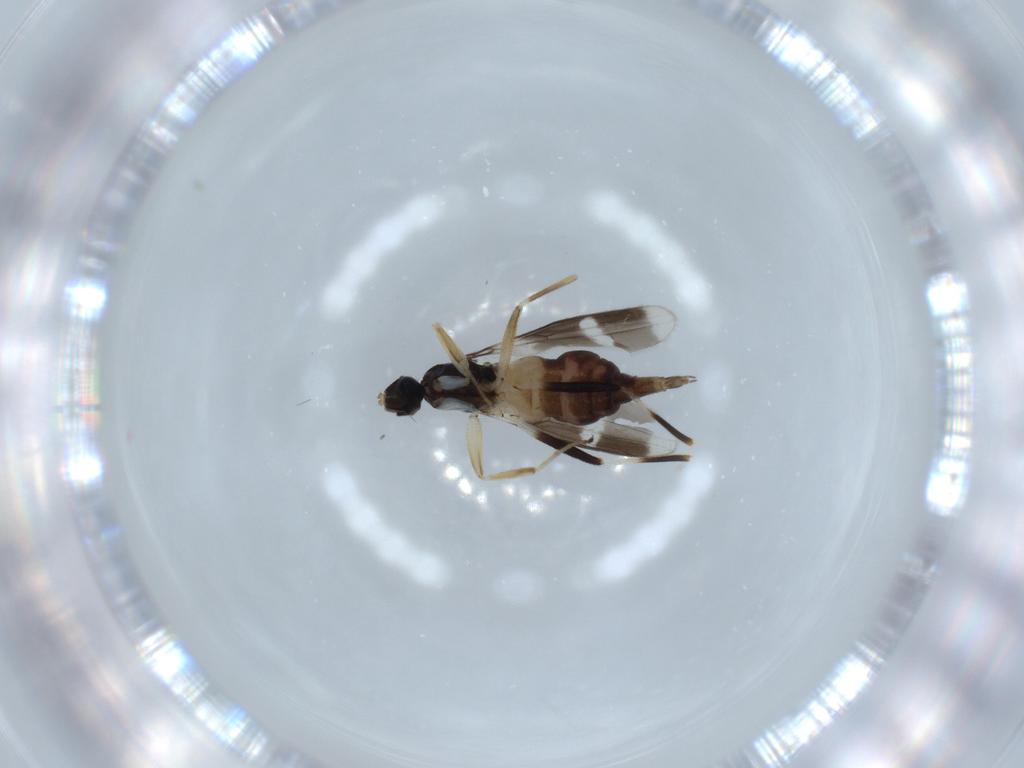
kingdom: Animalia
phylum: Arthropoda
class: Insecta
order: Diptera
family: Hybotidae
